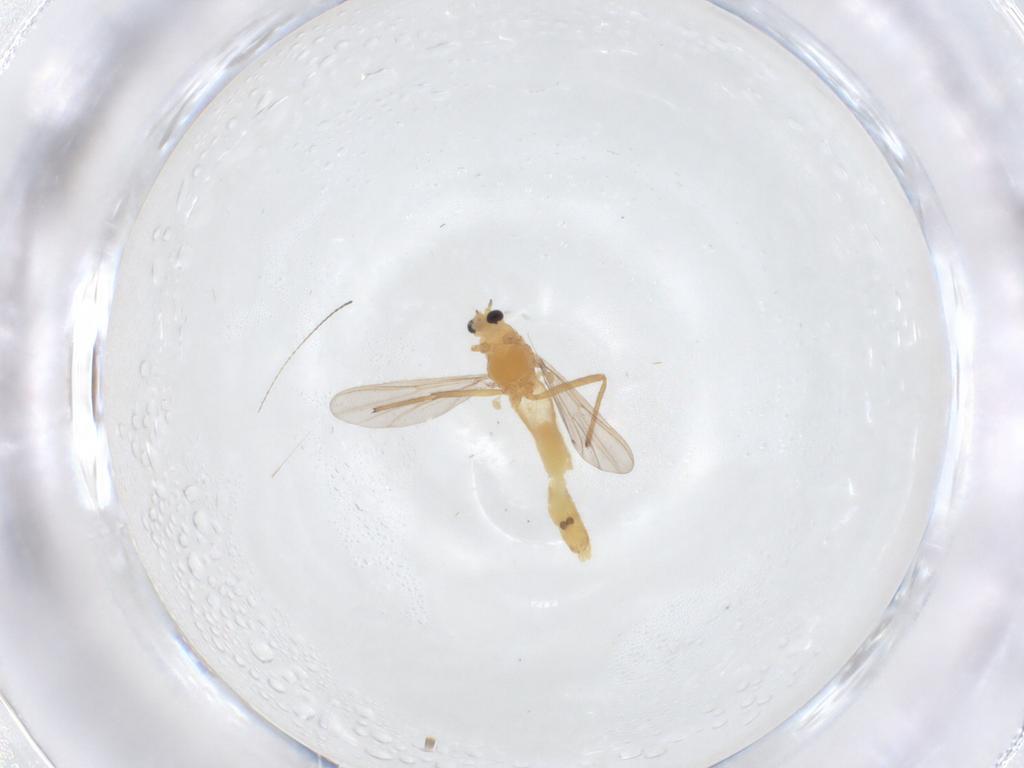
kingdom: Animalia
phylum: Arthropoda
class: Insecta
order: Diptera
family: Chironomidae
